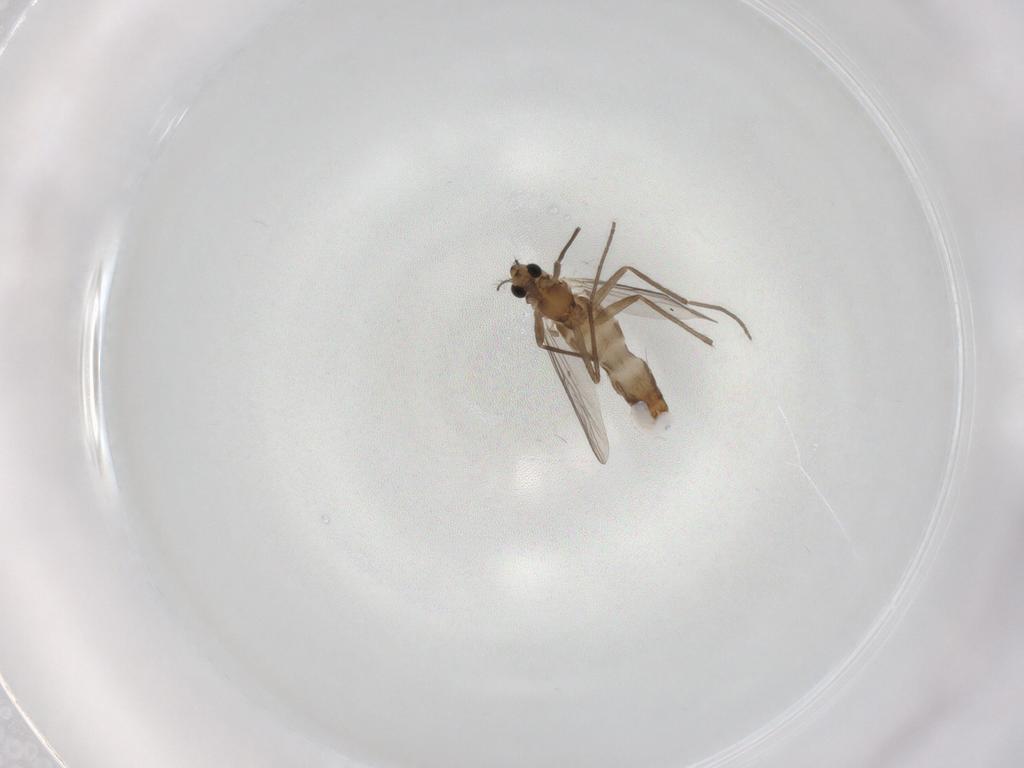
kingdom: Animalia
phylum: Arthropoda
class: Insecta
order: Diptera
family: Chironomidae
